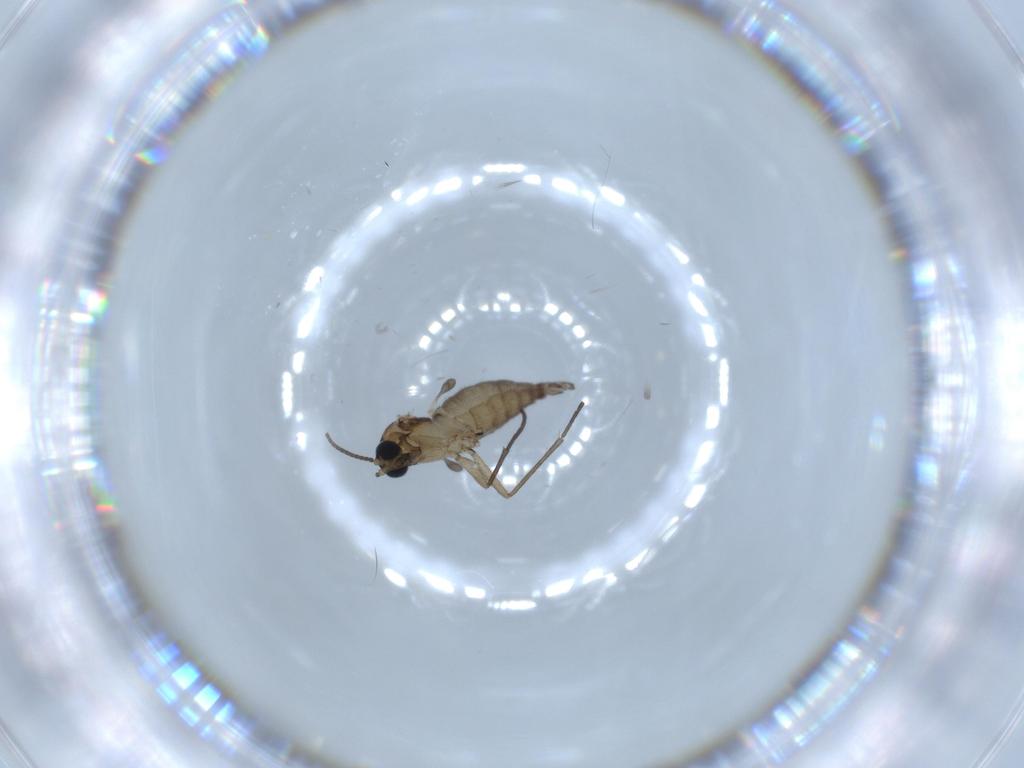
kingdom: Animalia
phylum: Arthropoda
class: Insecta
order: Diptera
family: Sciaridae
